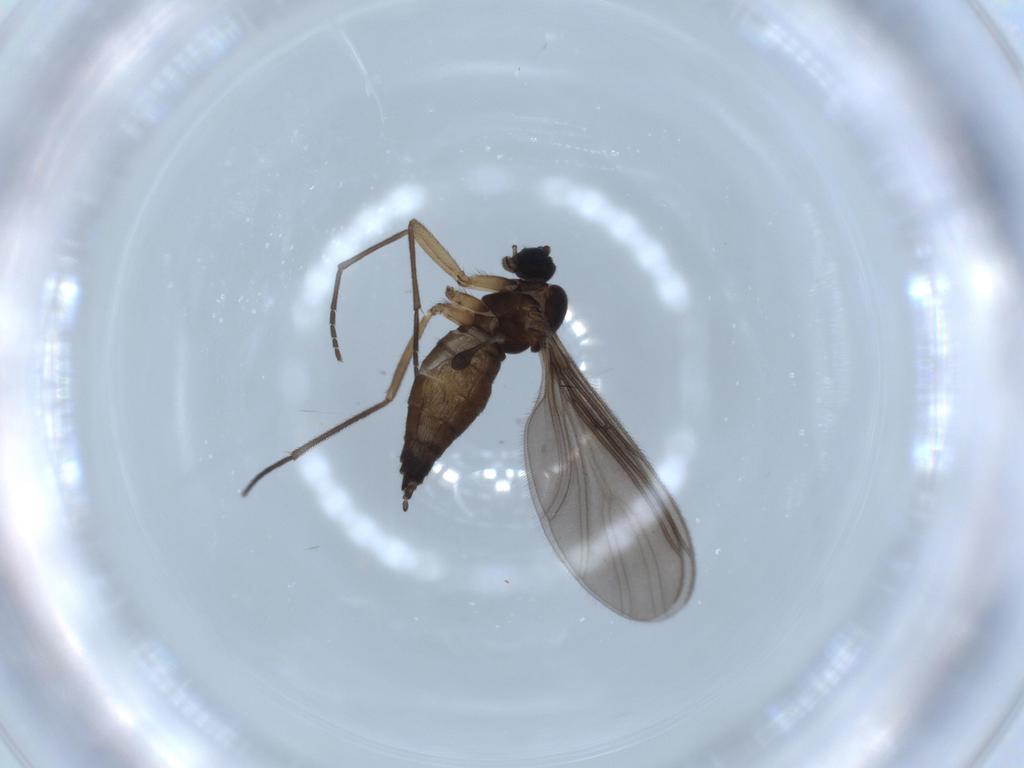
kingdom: Animalia
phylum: Arthropoda
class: Insecta
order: Diptera
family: Sciaridae
